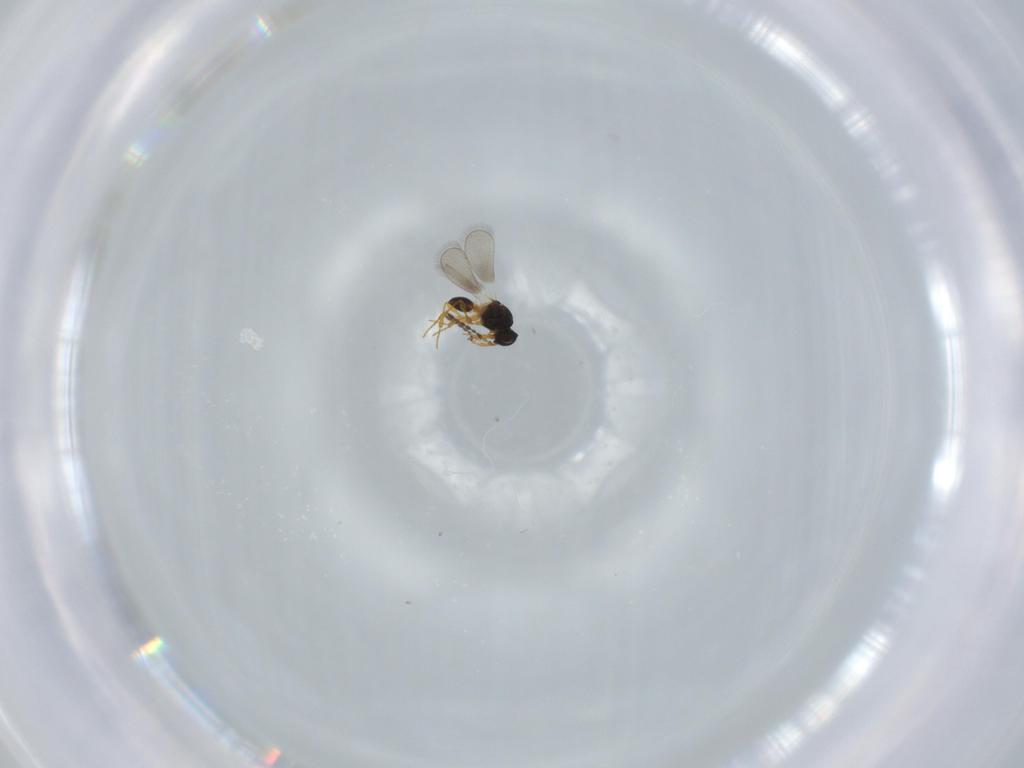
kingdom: Animalia
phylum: Arthropoda
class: Insecta
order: Hymenoptera
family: Platygastridae
